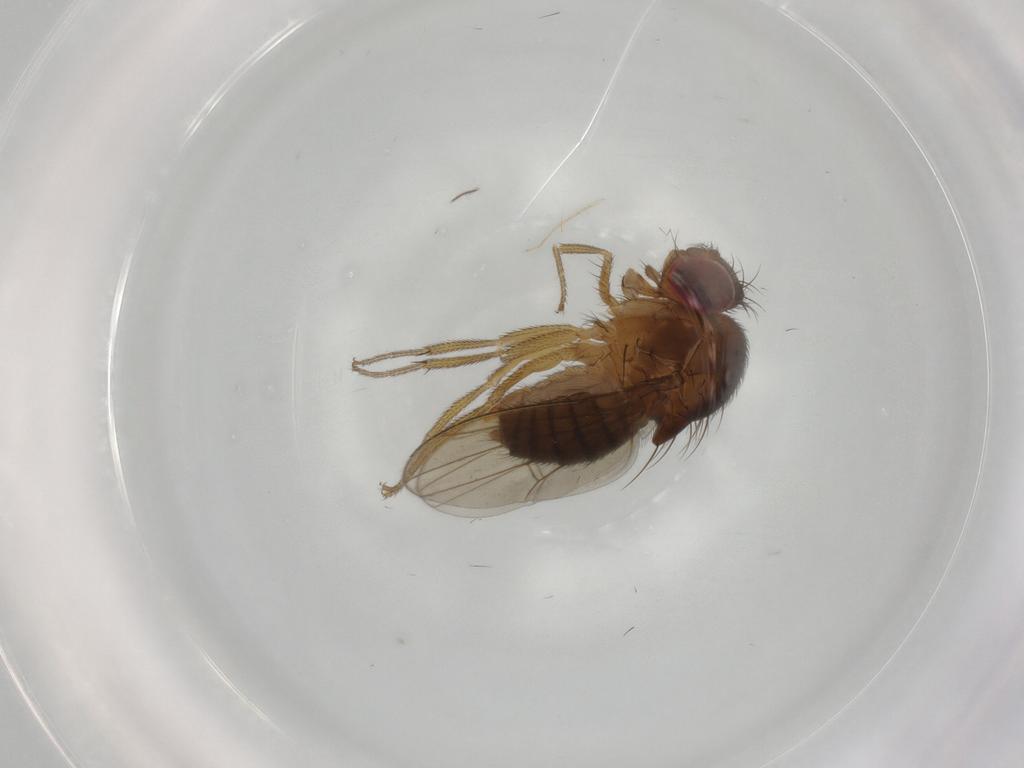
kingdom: Animalia
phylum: Arthropoda
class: Insecta
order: Diptera
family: Drosophilidae
